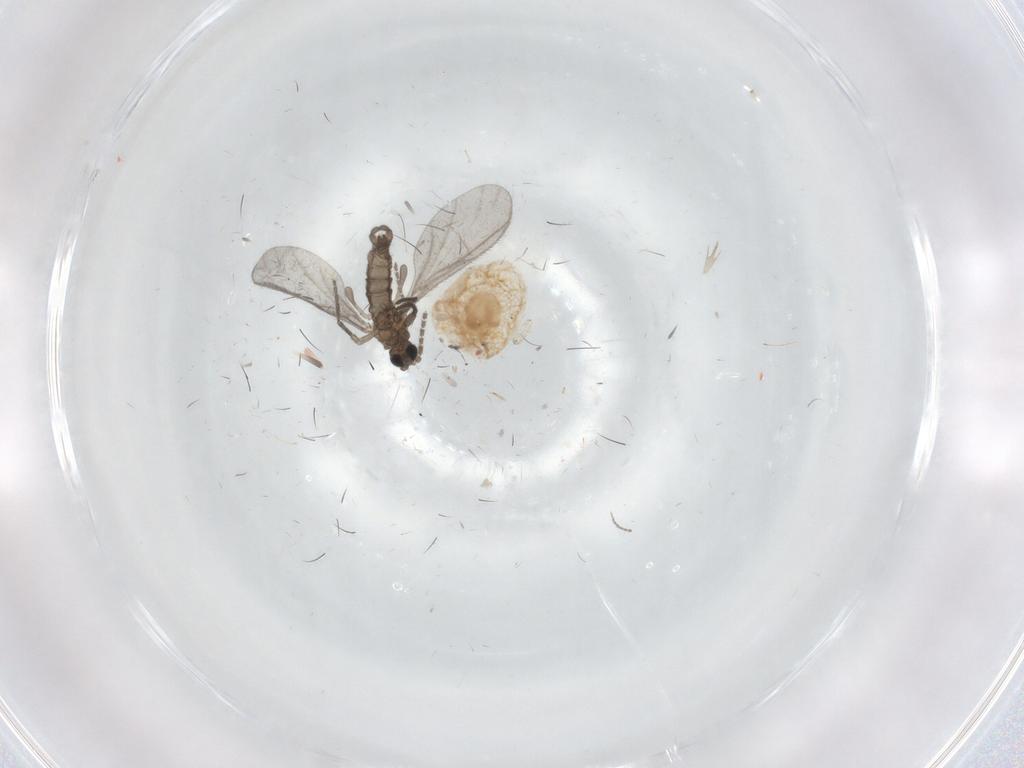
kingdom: Animalia
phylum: Arthropoda
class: Insecta
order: Diptera
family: Sciaridae
